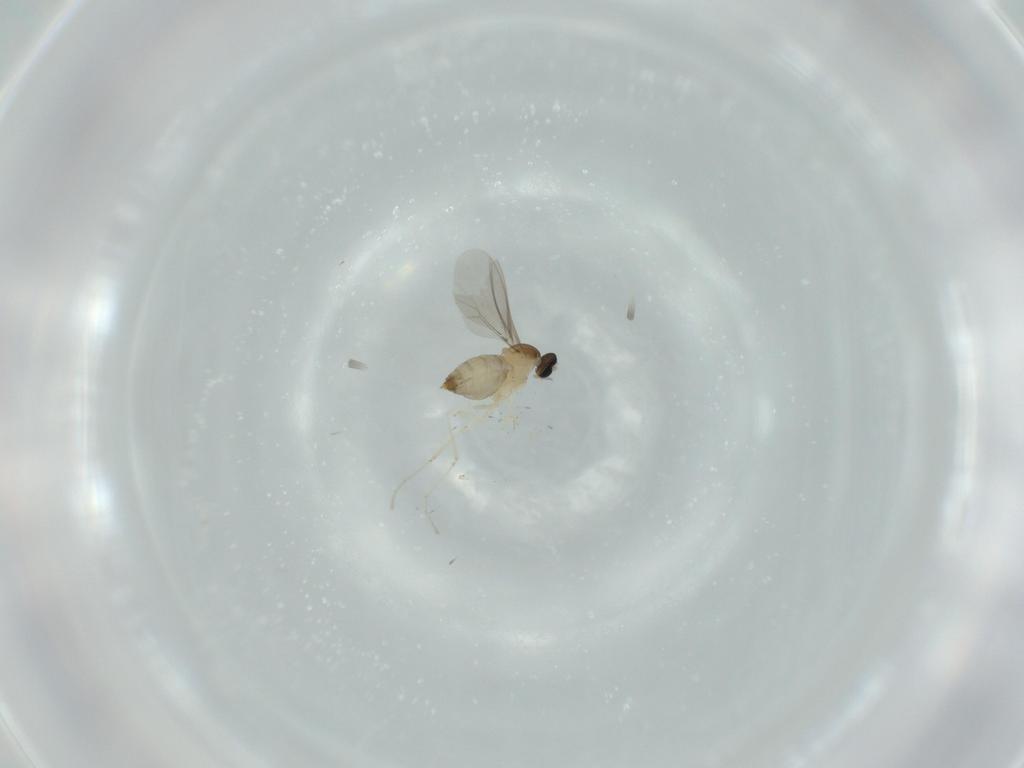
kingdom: Animalia
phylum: Arthropoda
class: Insecta
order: Diptera
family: Cecidomyiidae
